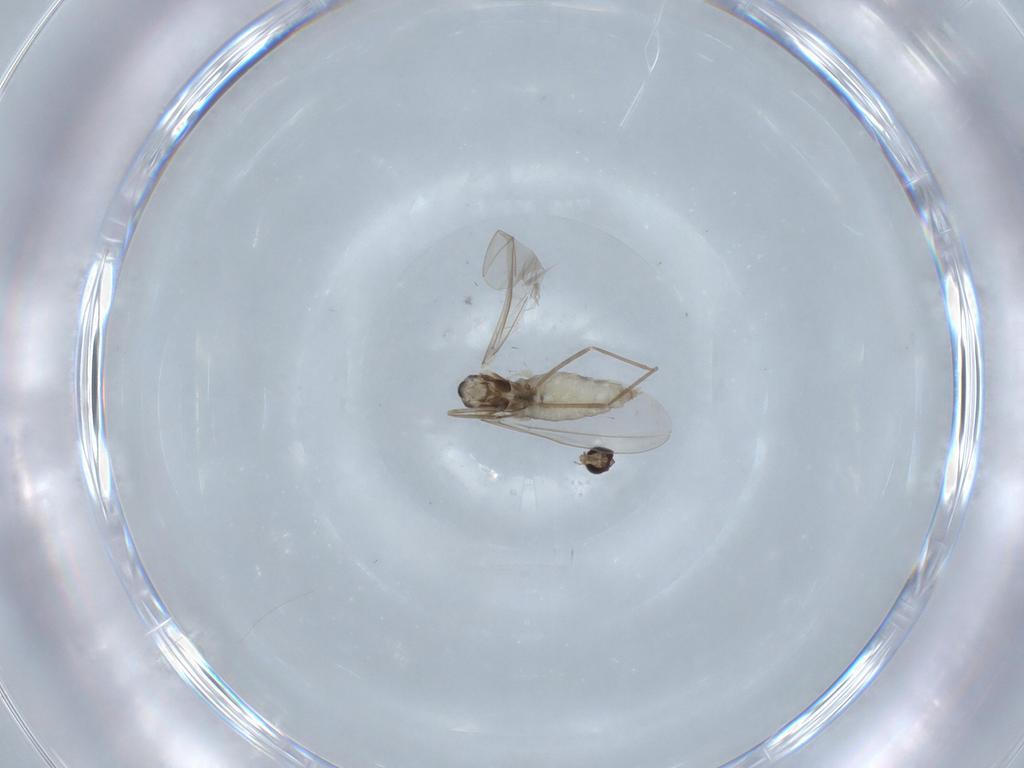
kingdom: Animalia
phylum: Arthropoda
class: Insecta
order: Diptera
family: Cecidomyiidae
